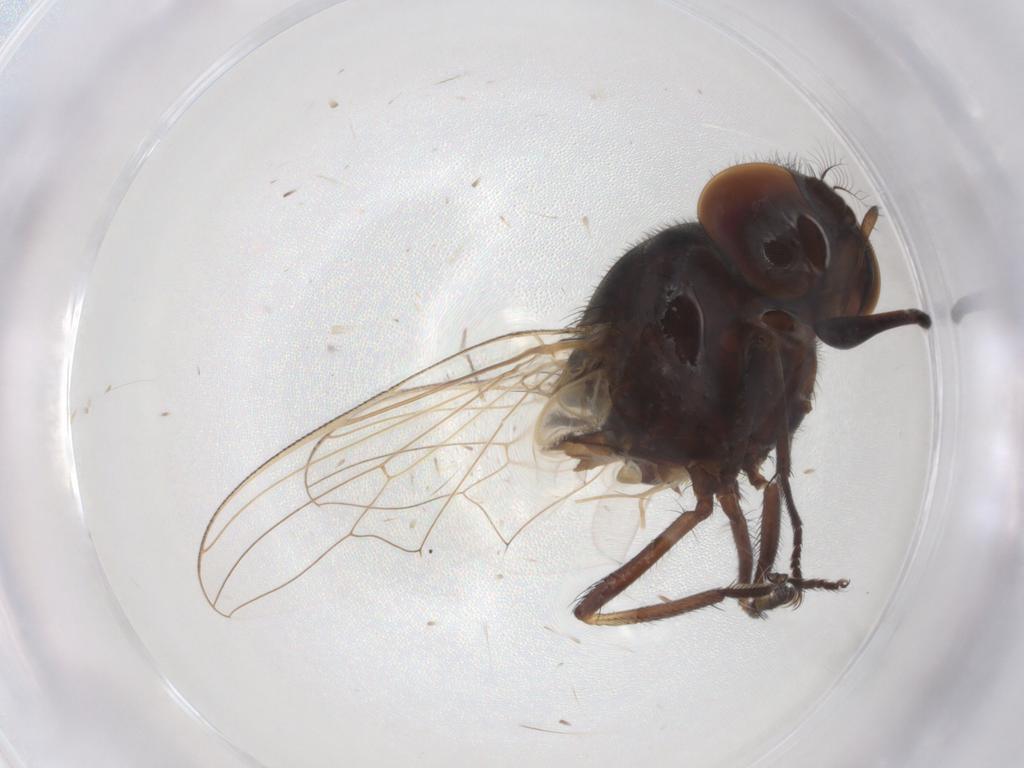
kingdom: Animalia
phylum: Arthropoda
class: Insecta
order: Diptera
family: Muscidae
